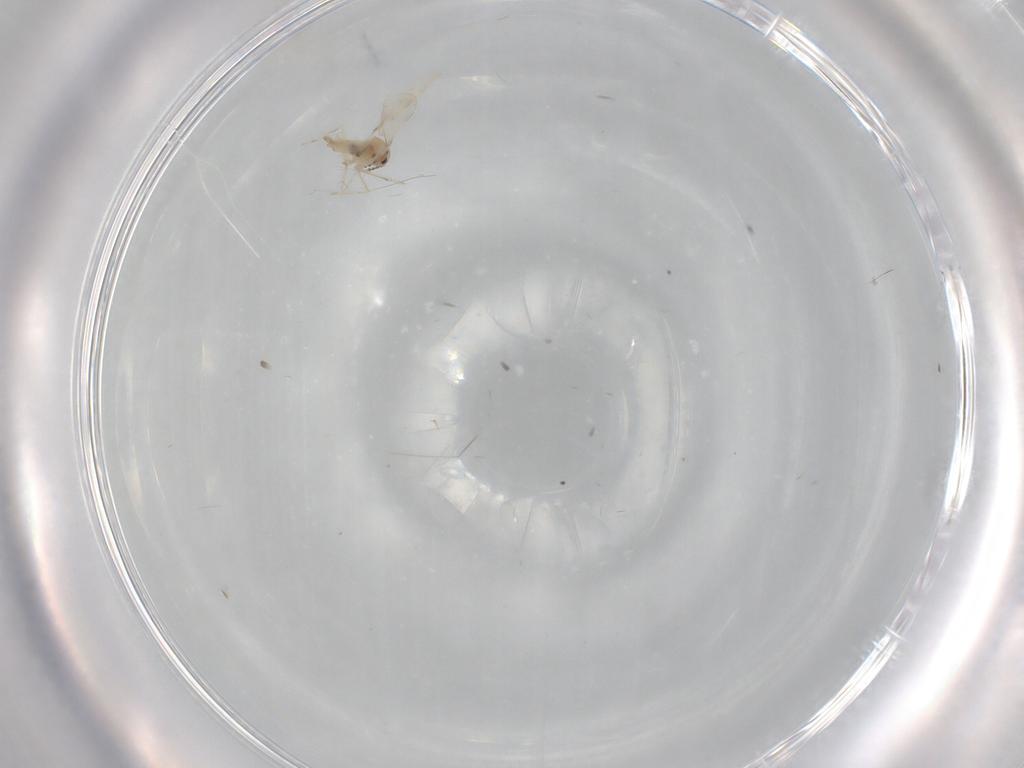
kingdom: Animalia
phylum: Arthropoda
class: Insecta
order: Diptera
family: Cecidomyiidae
